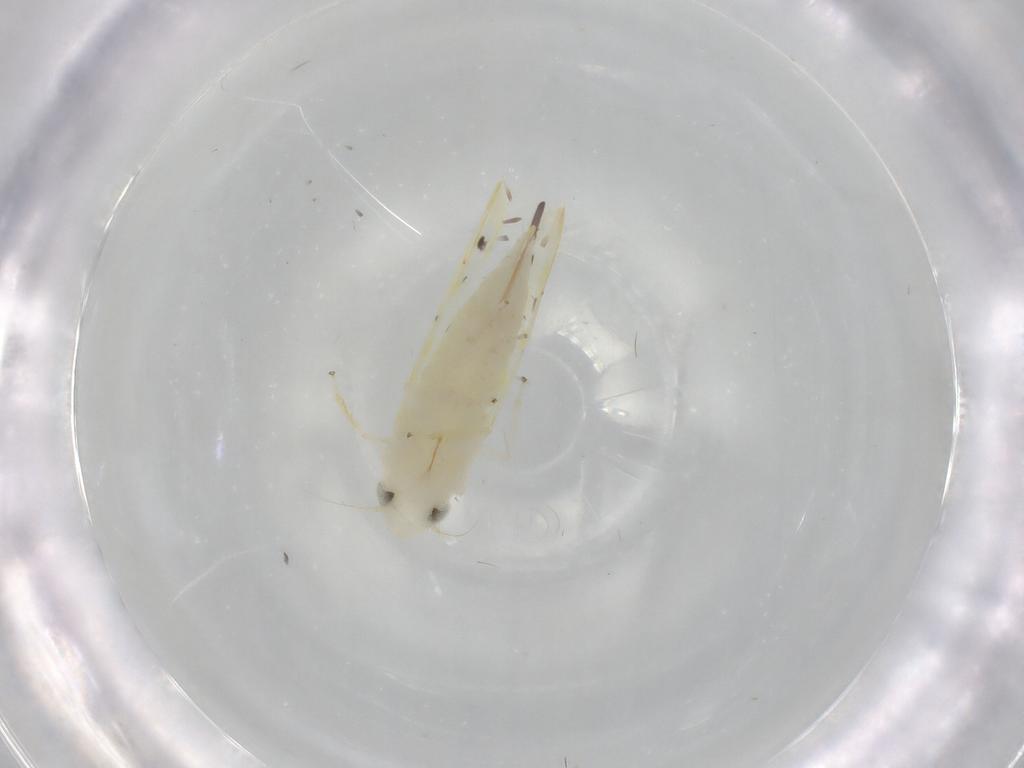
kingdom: Animalia
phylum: Arthropoda
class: Insecta
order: Hemiptera
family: Cicadellidae
